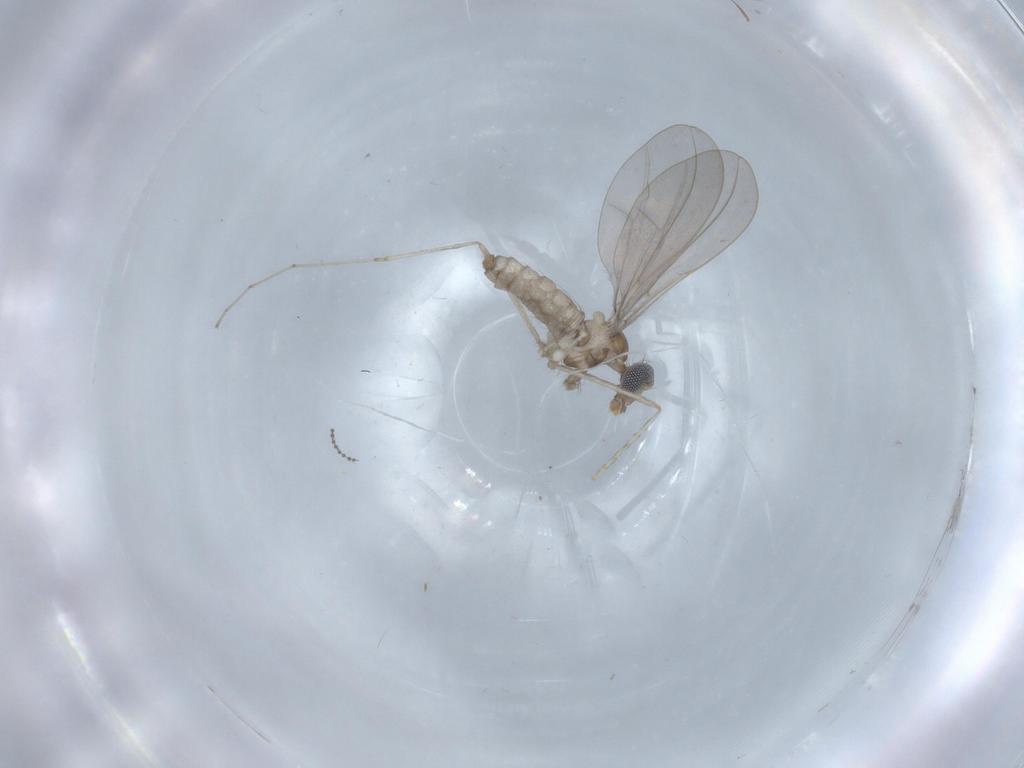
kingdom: Animalia
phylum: Arthropoda
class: Insecta
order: Diptera
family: Cecidomyiidae
